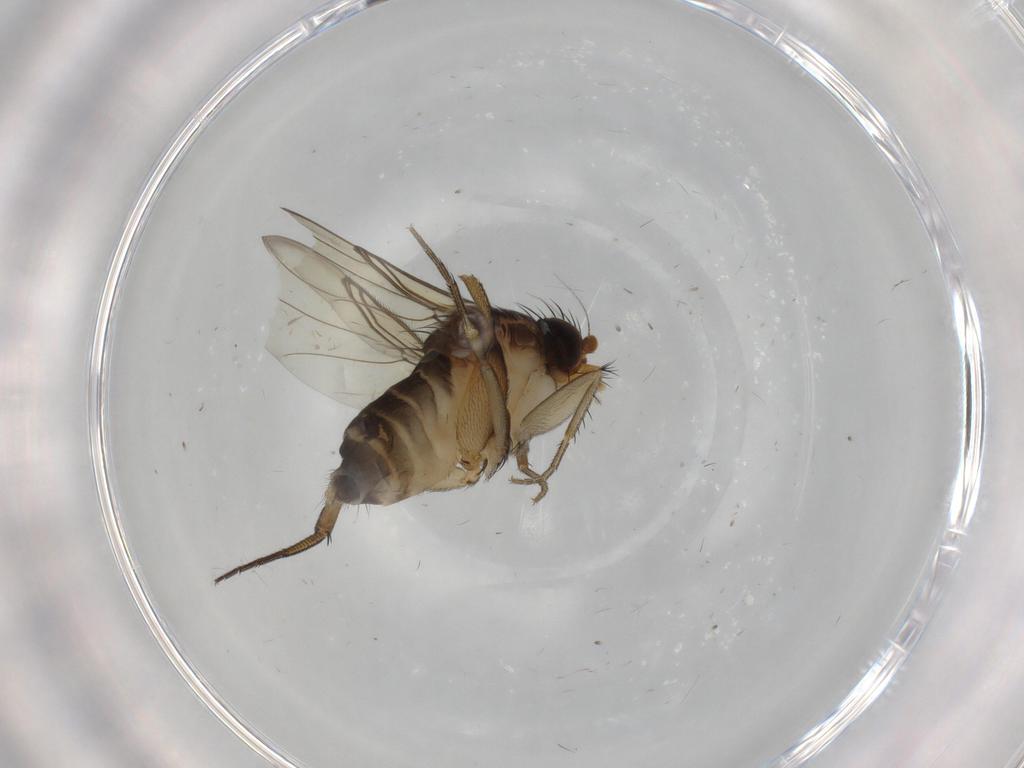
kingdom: Animalia
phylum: Arthropoda
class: Insecta
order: Diptera
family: Phoridae
